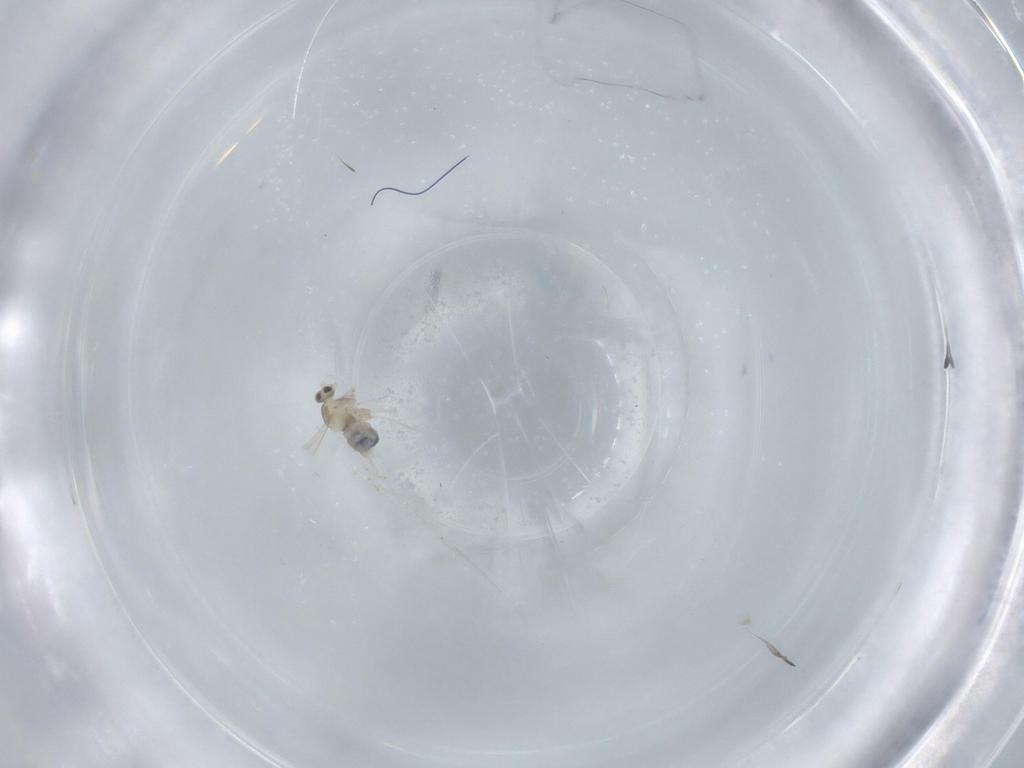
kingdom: Animalia
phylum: Arthropoda
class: Insecta
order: Diptera
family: Cecidomyiidae
